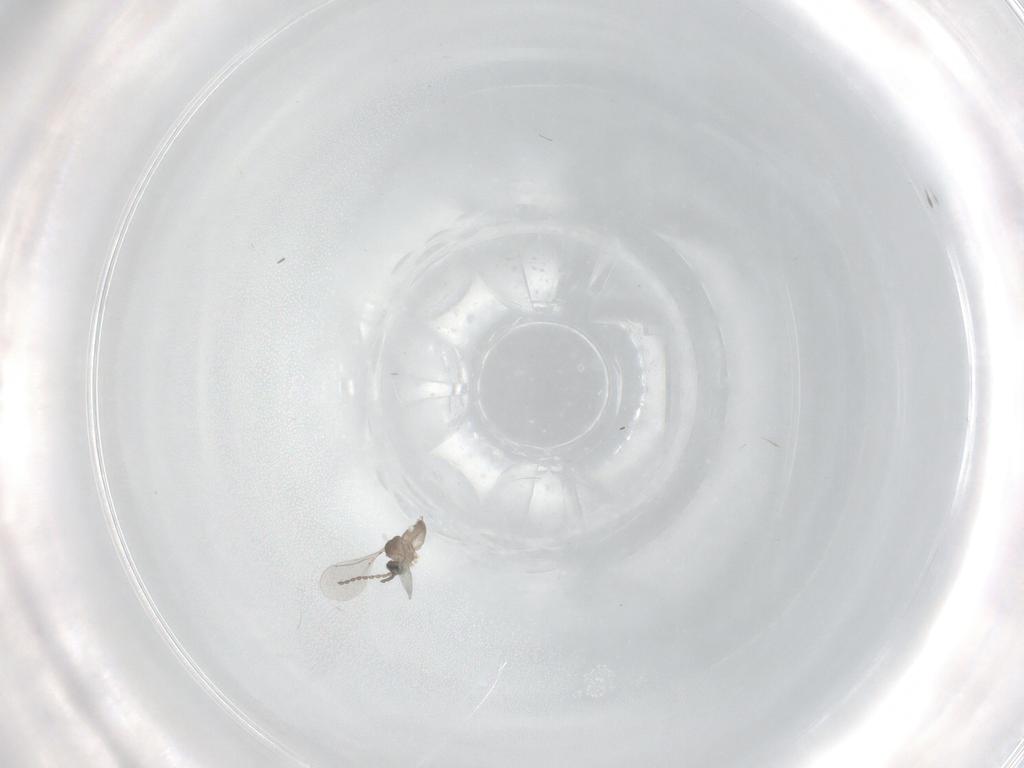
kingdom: Animalia
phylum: Arthropoda
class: Insecta
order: Diptera
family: Cecidomyiidae
